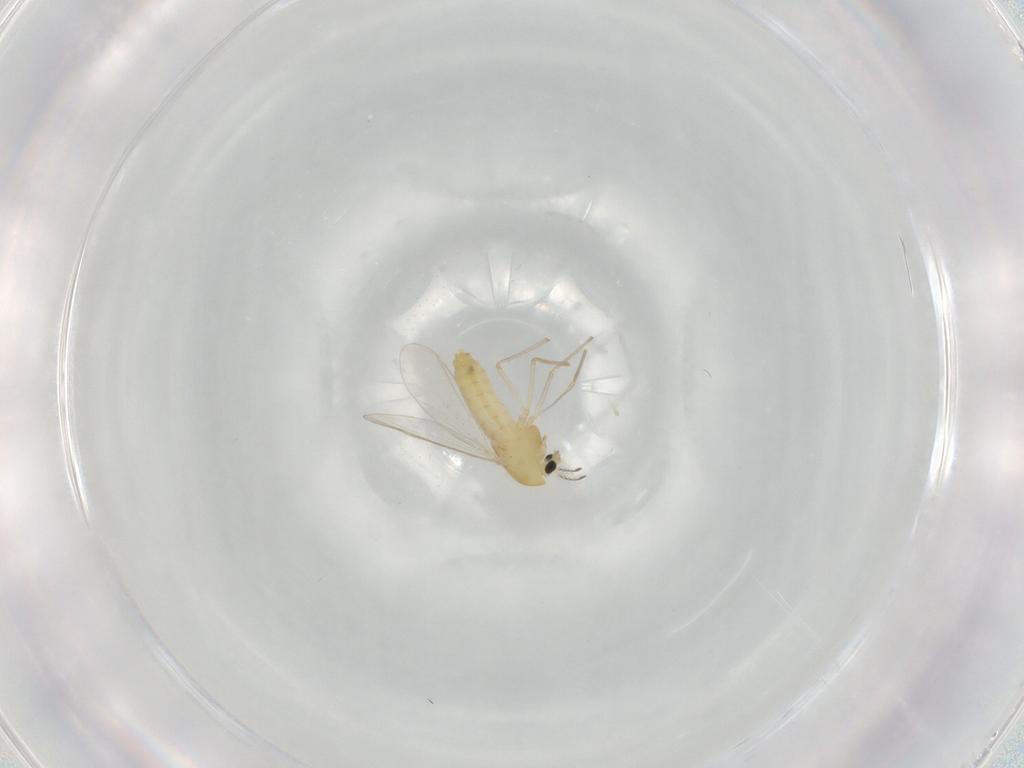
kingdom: Animalia
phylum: Arthropoda
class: Insecta
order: Diptera
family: Chironomidae
